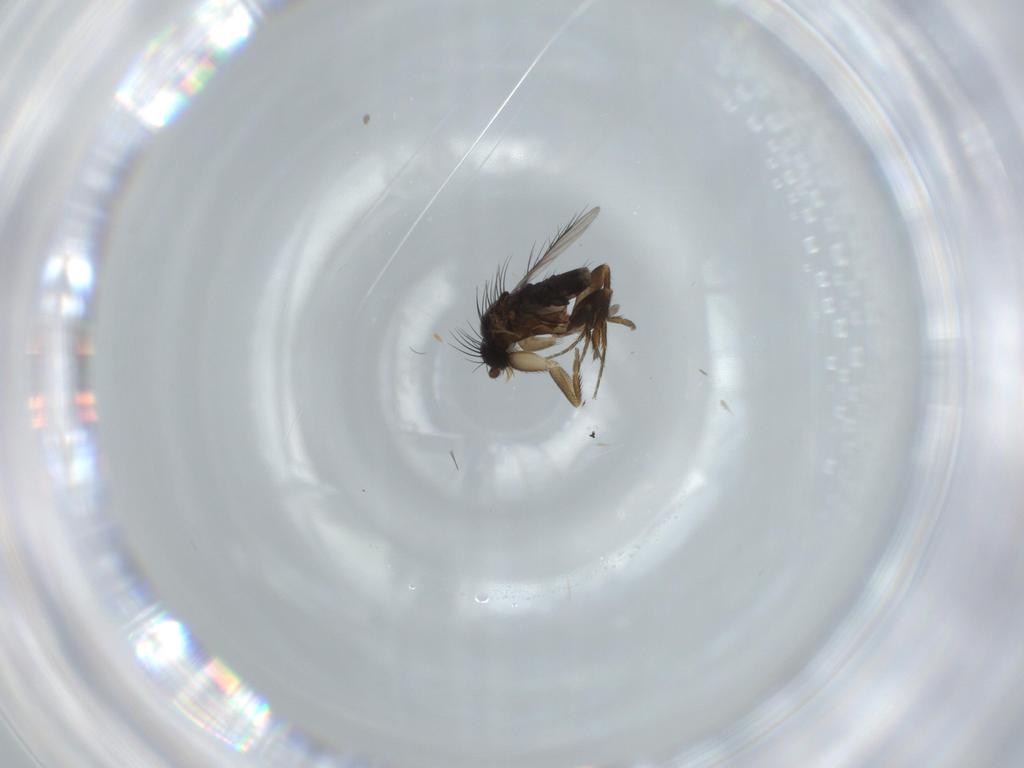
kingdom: Animalia
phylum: Arthropoda
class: Insecta
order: Diptera
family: Phoridae
